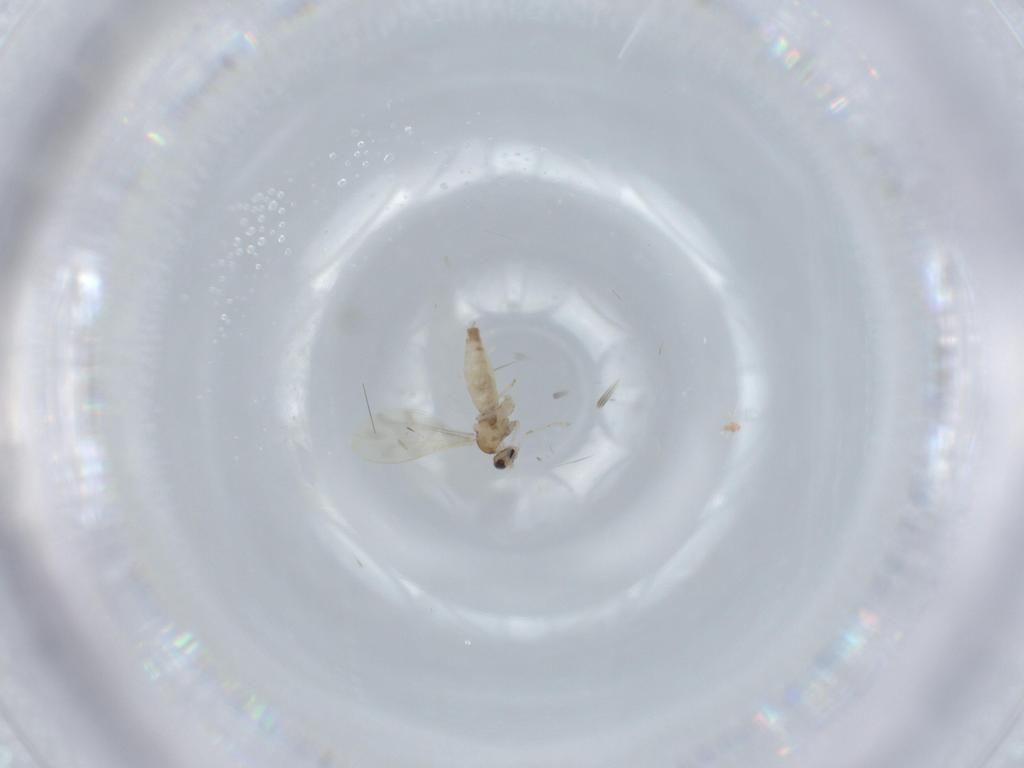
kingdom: Animalia
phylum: Arthropoda
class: Insecta
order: Diptera
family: Cecidomyiidae
